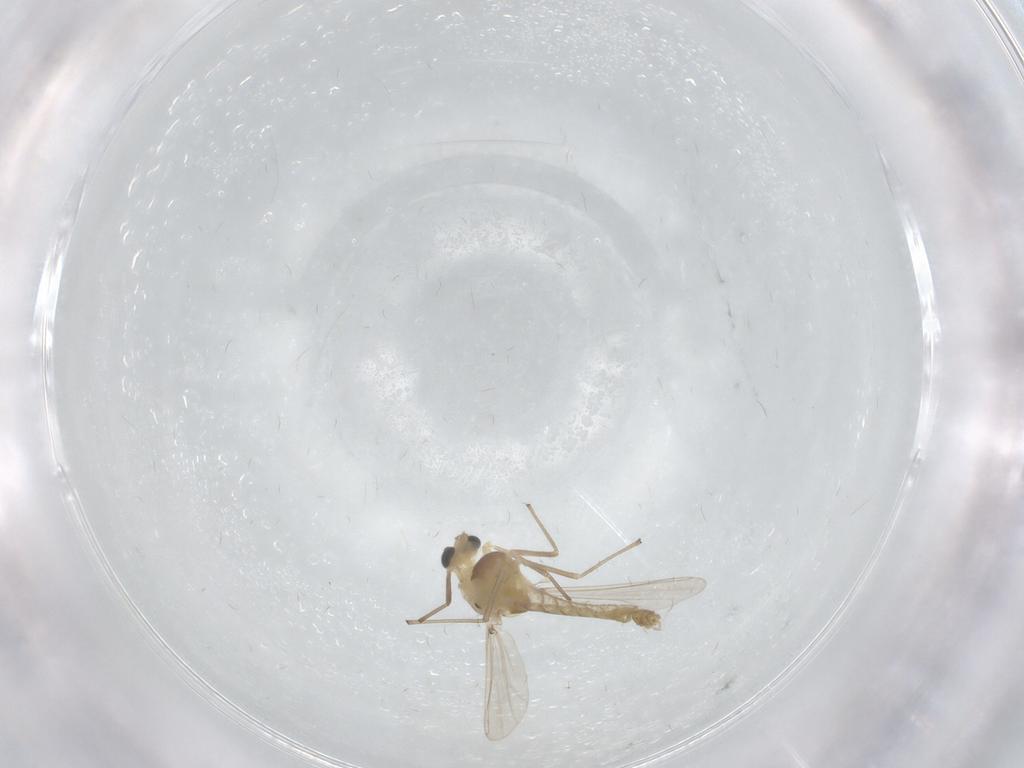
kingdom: Animalia
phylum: Arthropoda
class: Insecta
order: Diptera
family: Chironomidae
